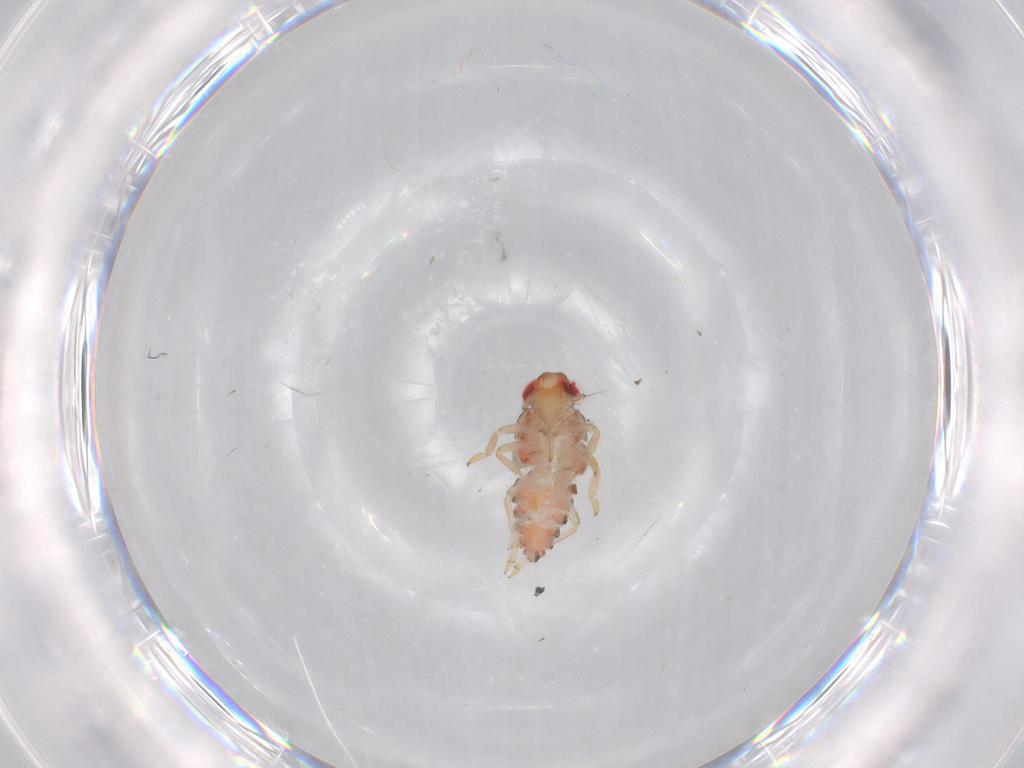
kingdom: Animalia
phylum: Arthropoda
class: Insecta
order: Hemiptera
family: Issidae
